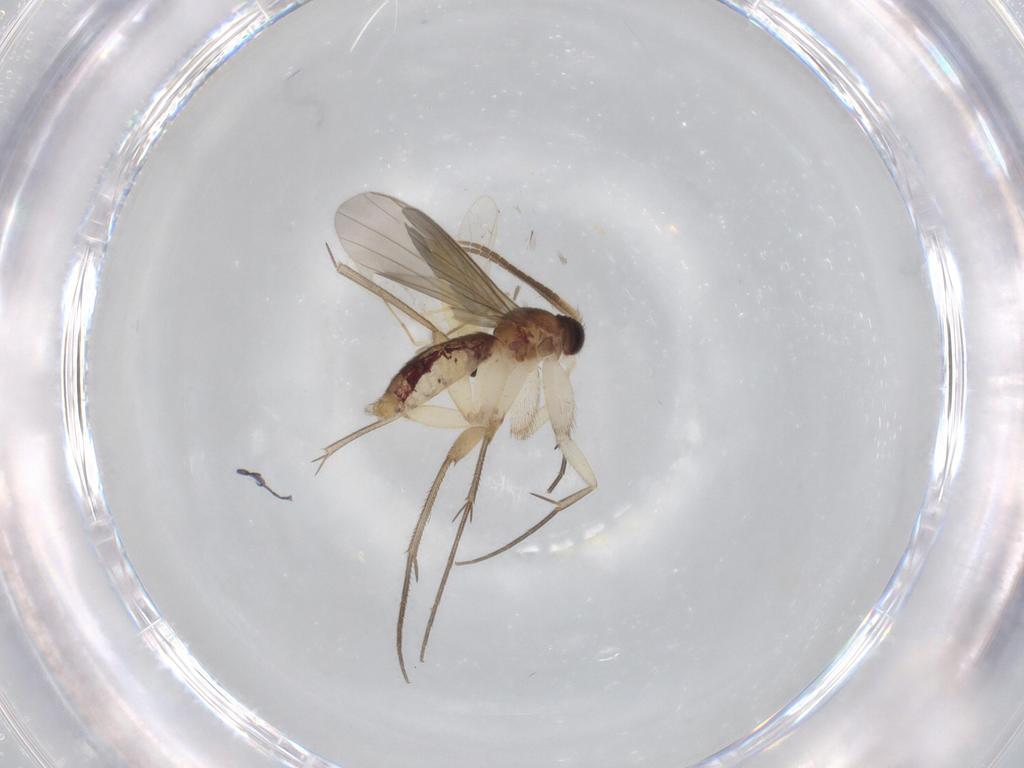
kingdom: Animalia
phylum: Arthropoda
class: Insecta
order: Diptera
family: Mycetophilidae
